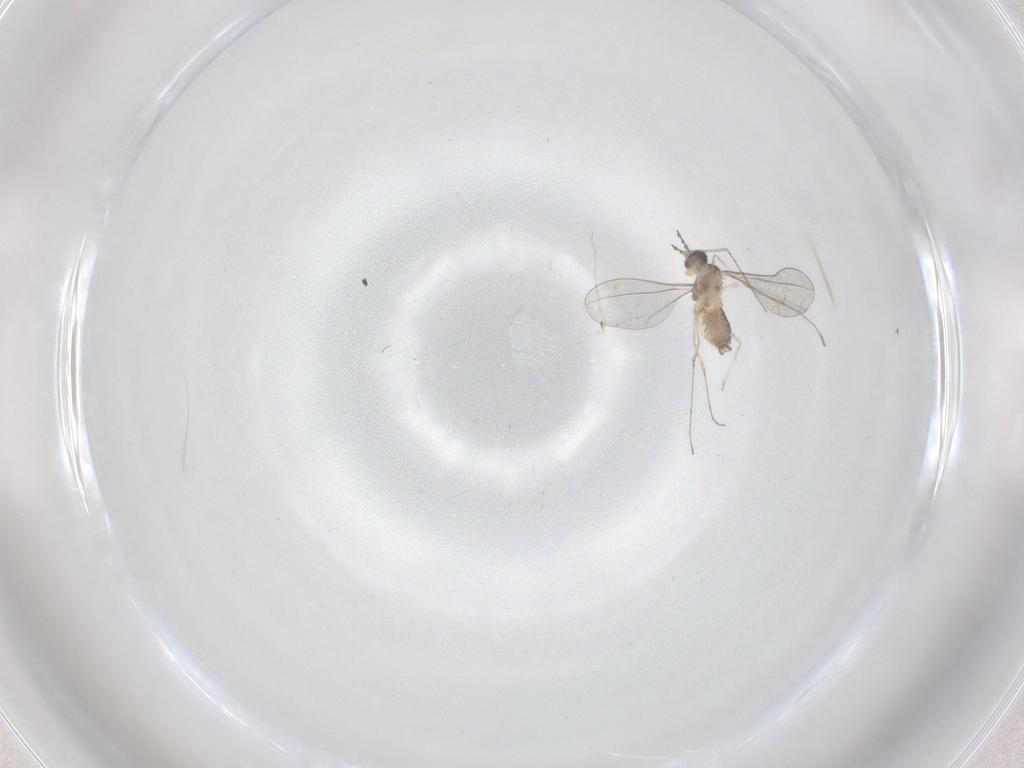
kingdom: Animalia
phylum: Arthropoda
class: Insecta
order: Diptera
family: Cecidomyiidae
